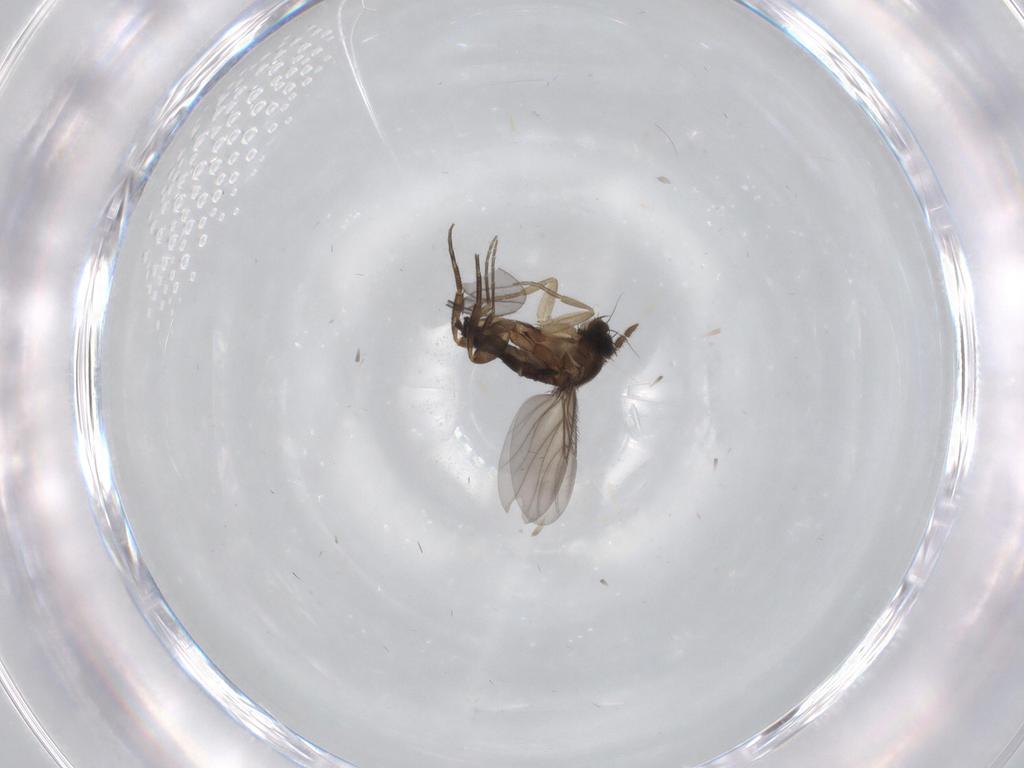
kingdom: Animalia
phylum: Arthropoda
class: Insecta
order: Diptera
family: Phoridae
